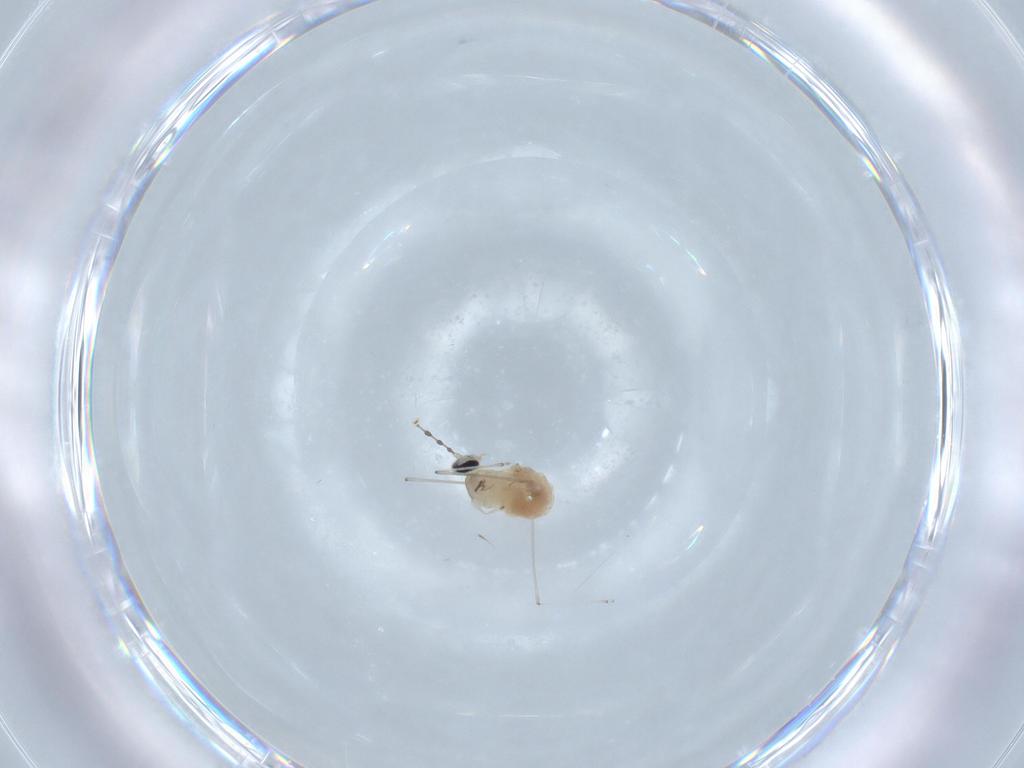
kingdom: Animalia
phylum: Arthropoda
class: Insecta
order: Diptera
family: Cecidomyiidae
